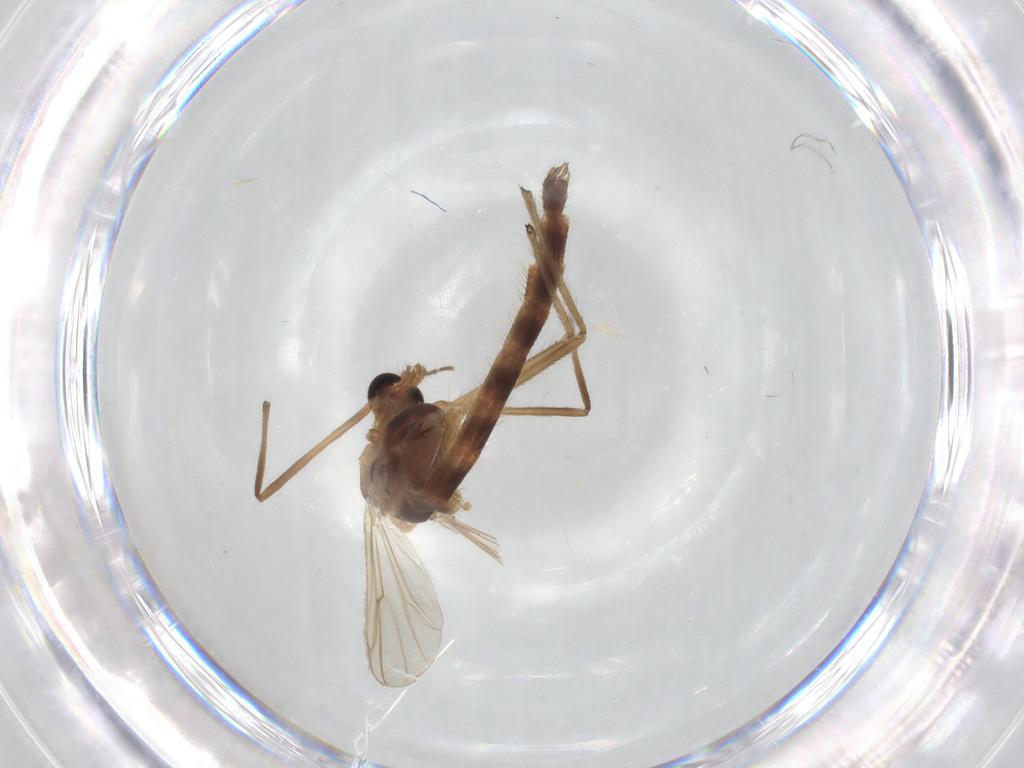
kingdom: Animalia
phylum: Arthropoda
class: Insecta
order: Diptera
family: Chironomidae
